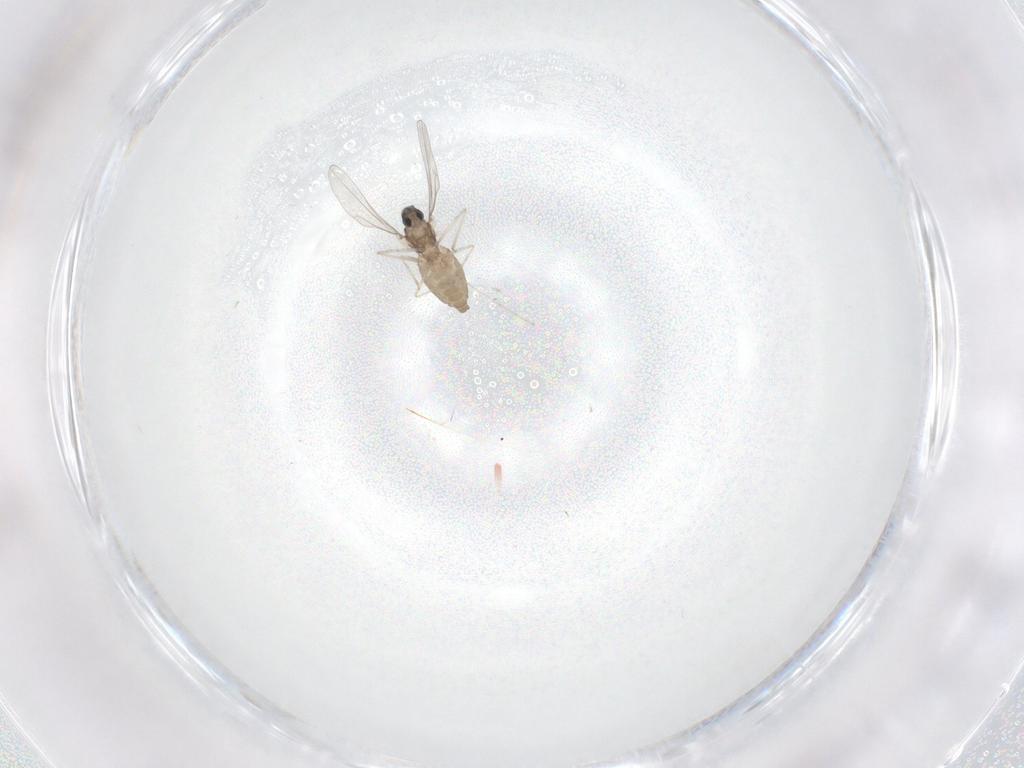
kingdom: Animalia
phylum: Arthropoda
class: Insecta
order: Diptera
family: Cecidomyiidae
